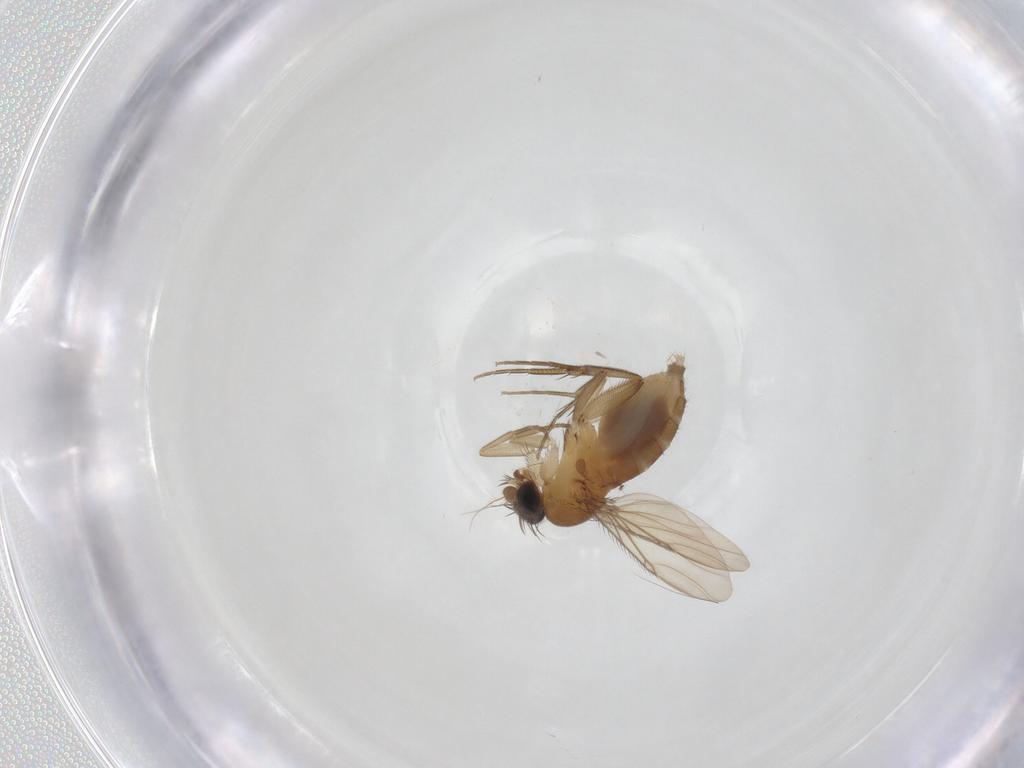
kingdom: Animalia
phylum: Arthropoda
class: Insecta
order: Diptera
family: Phoridae
